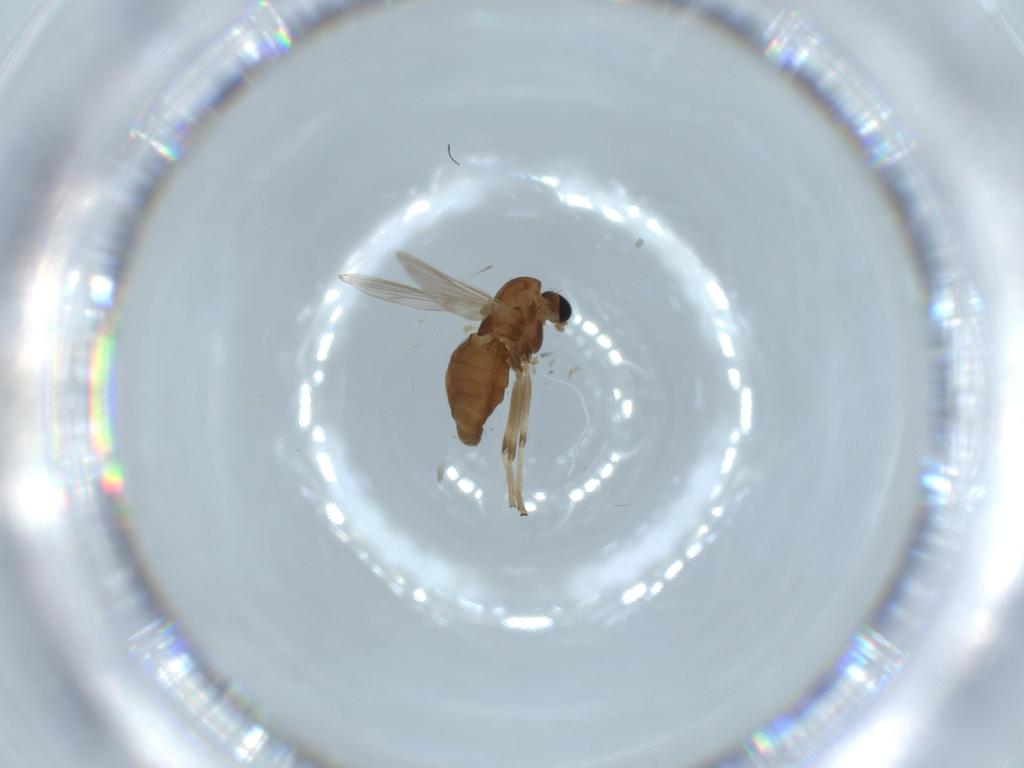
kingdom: Animalia
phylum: Arthropoda
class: Insecta
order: Diptera
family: Chironomidae
